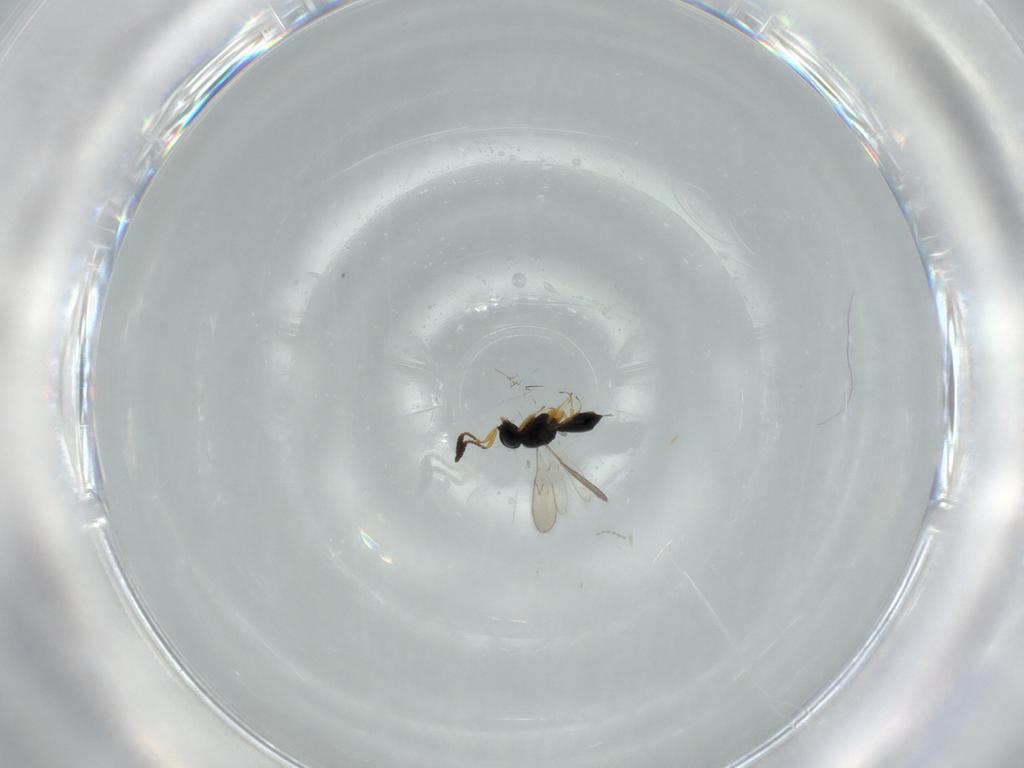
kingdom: Animalia
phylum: Arthropoda
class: Insecta
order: Hymenoptera
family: Scelionidae
